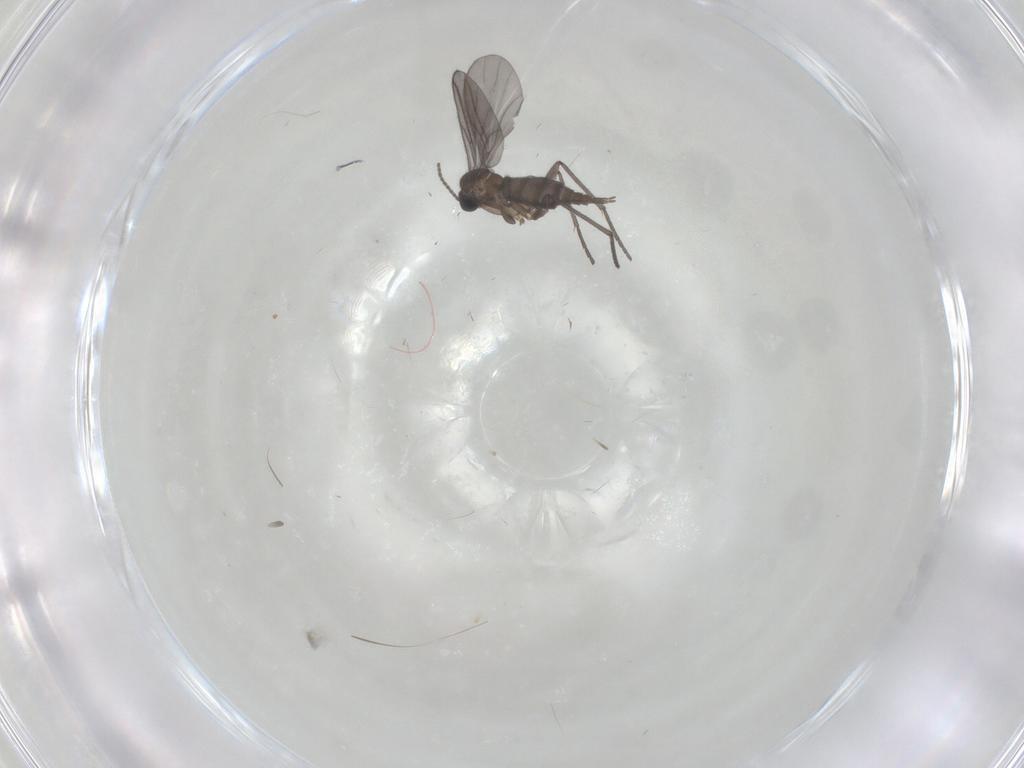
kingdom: Animalia
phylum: Arthropoda
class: Insecta
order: Diptera
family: Sciaridae
